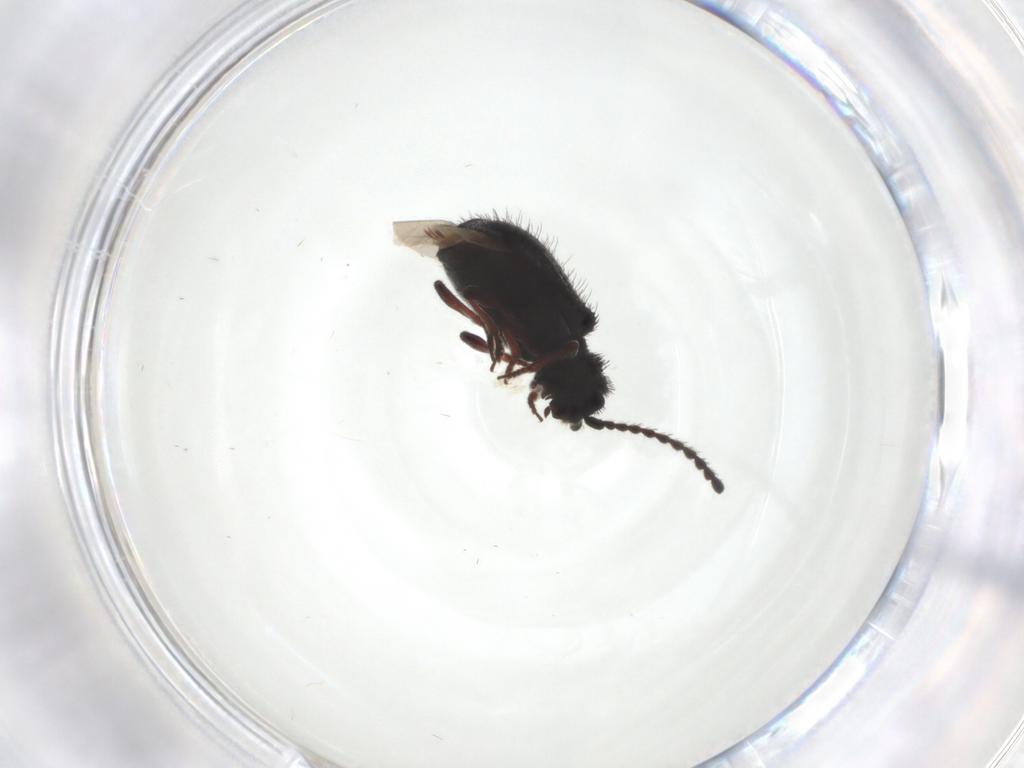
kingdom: Animalia
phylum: Arthropoda
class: Insecta
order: Coleoptera
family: Ptinidae
